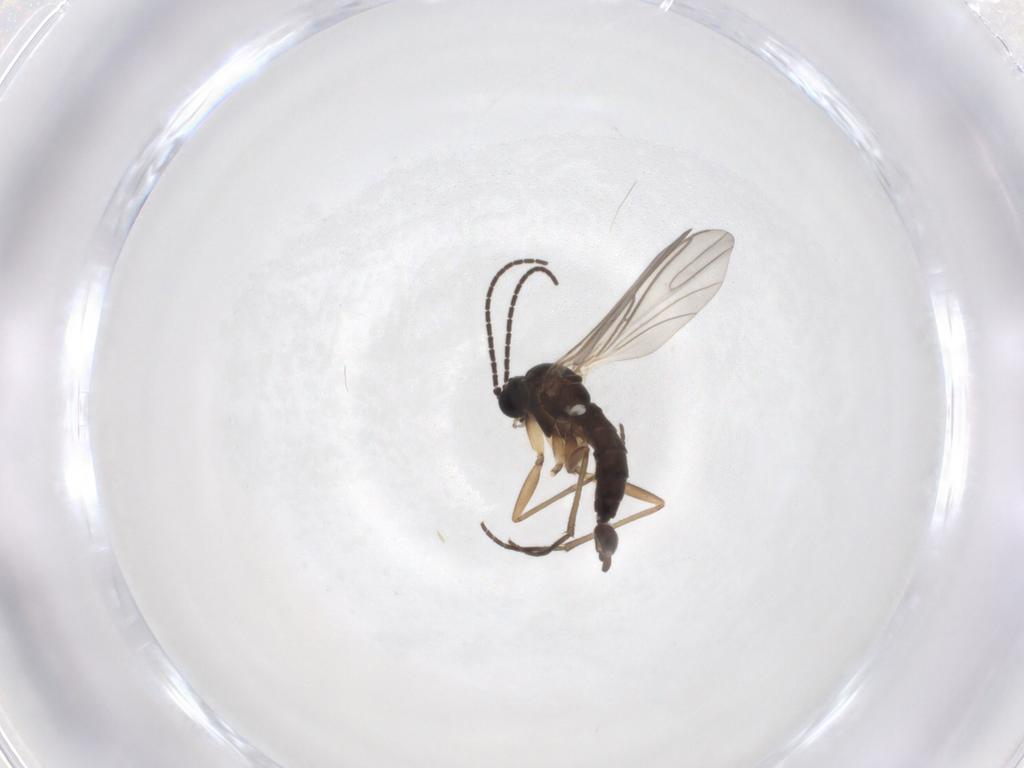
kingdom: Animalia
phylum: Arthropoda
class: Insecta
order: Diptera
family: Sciaridae
